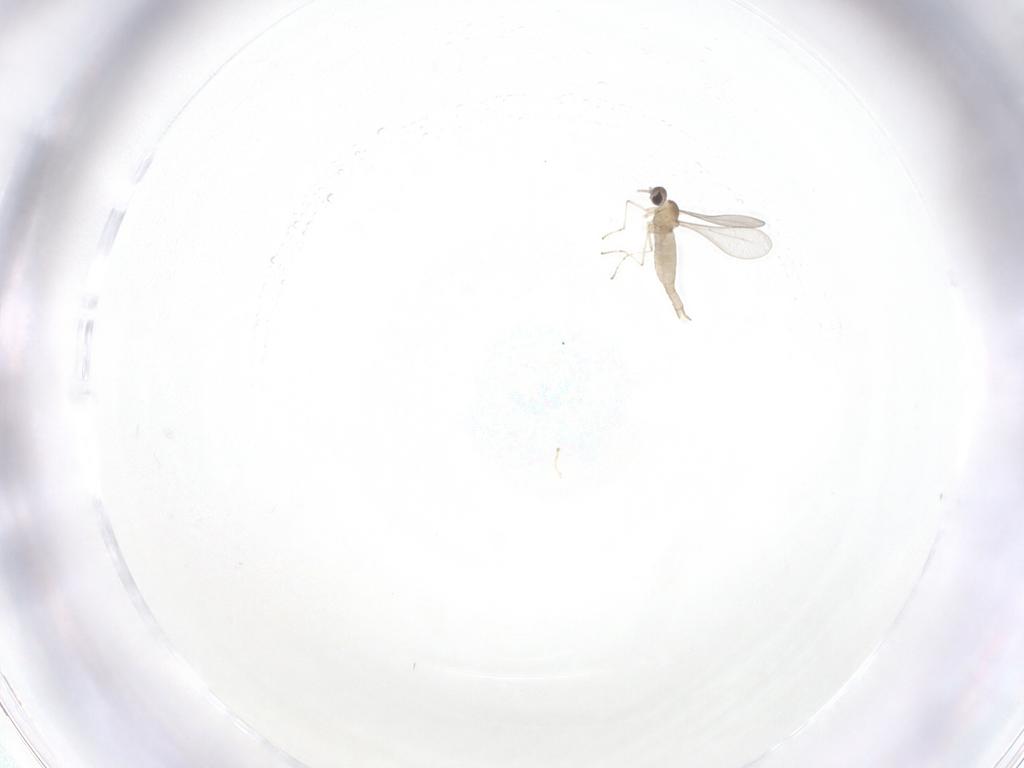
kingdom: Animalia
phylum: Arthropoda
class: Insecta
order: Diptera
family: Cecidomyiidae
